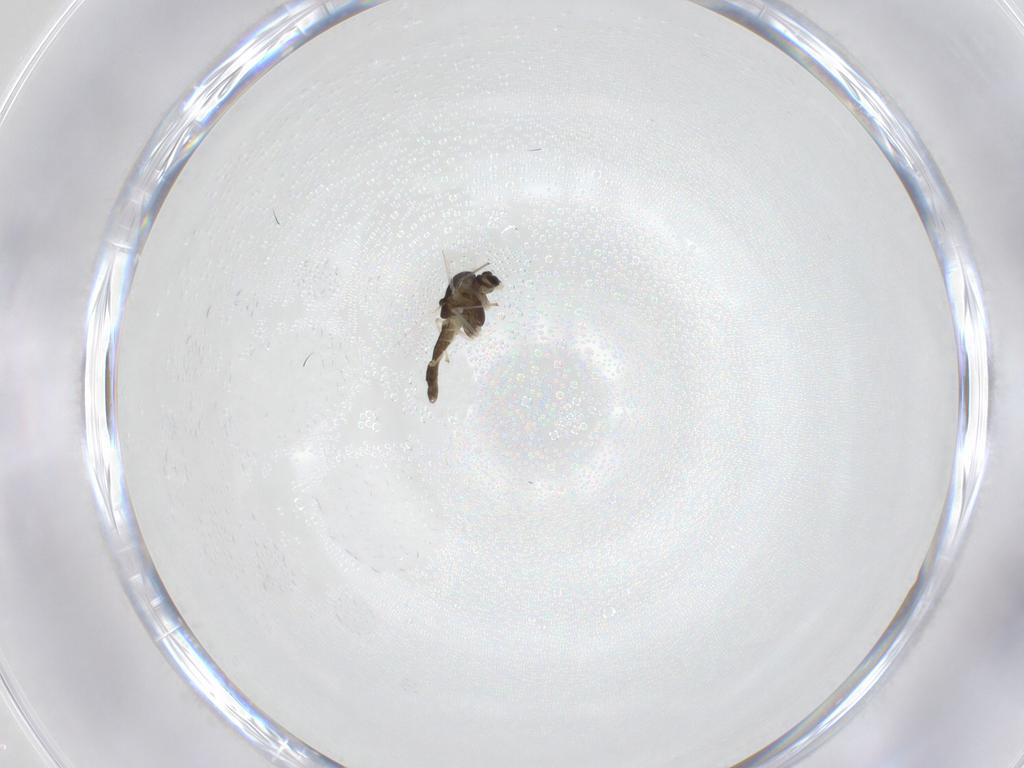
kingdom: Animalia
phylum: Arthropoda
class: Insecta
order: Diptera
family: Chironomidae
